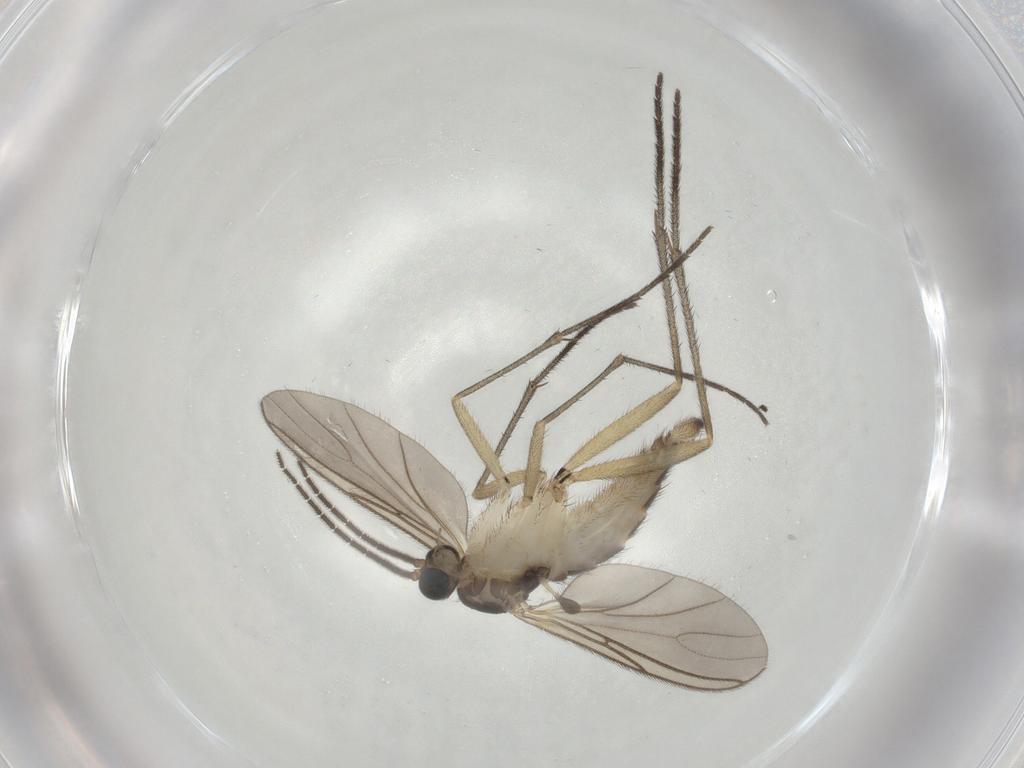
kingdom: Animalia
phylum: Arthropoda
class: Insecta
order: Diptera
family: Sciaridae
